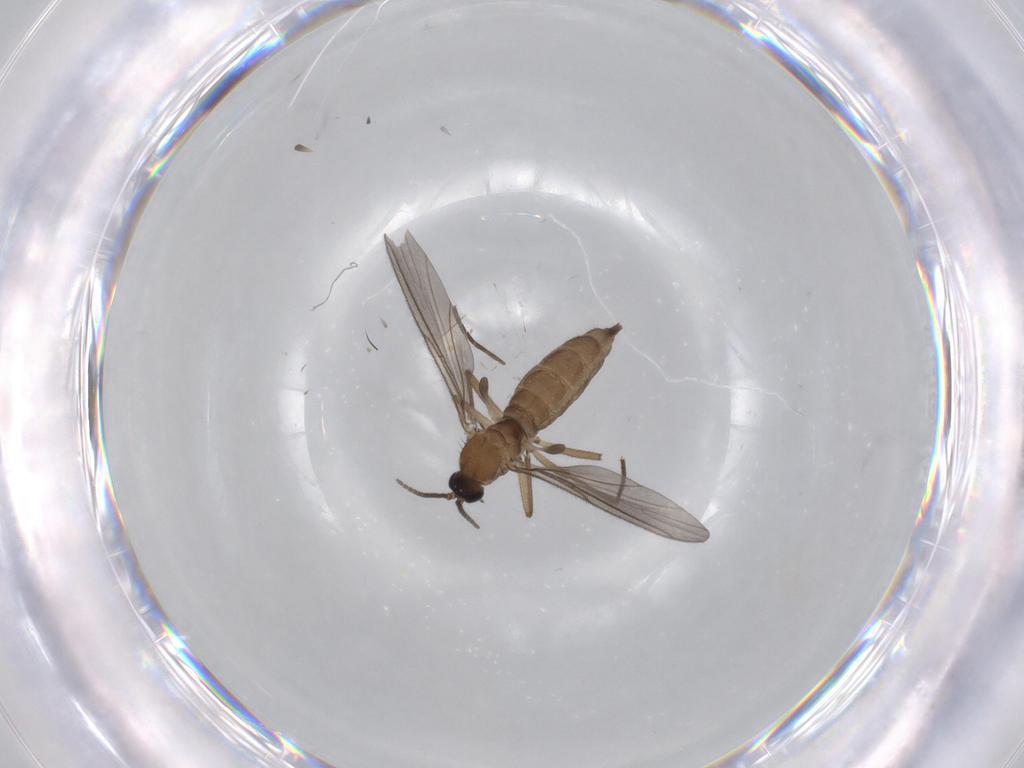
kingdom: Animalia
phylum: Arthropoda
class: Insecta
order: Diptera
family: Sciaridae
